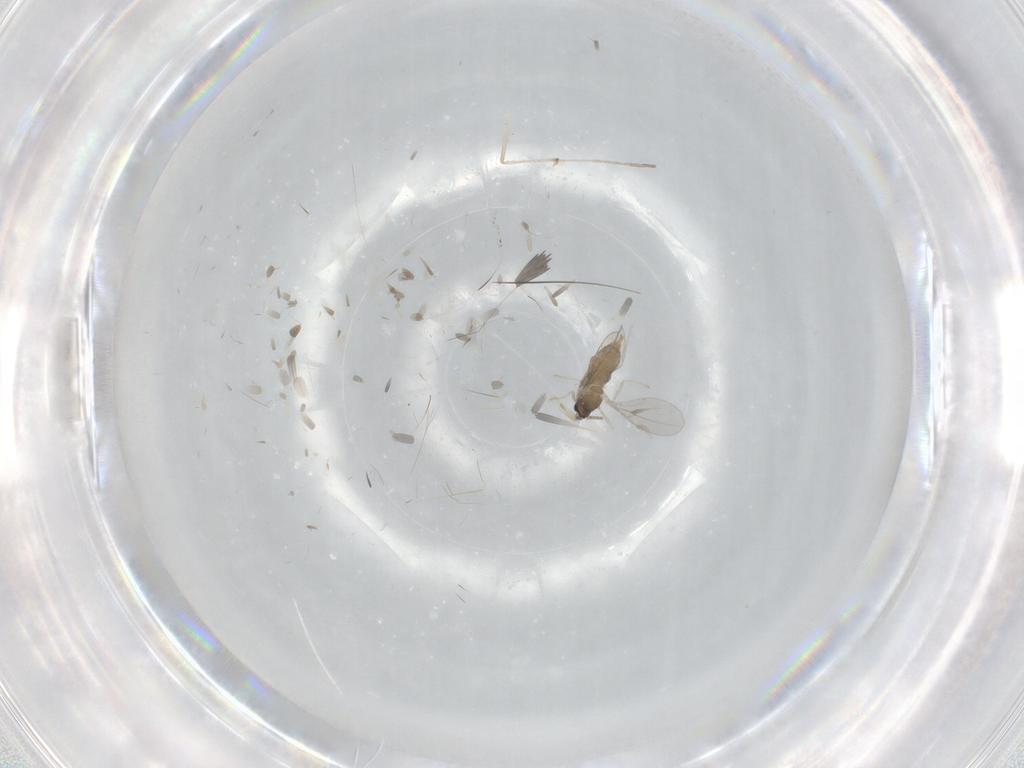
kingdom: Animalia
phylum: Arthropoda
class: Insecta
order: Diptera
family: Cecidomyiidae
